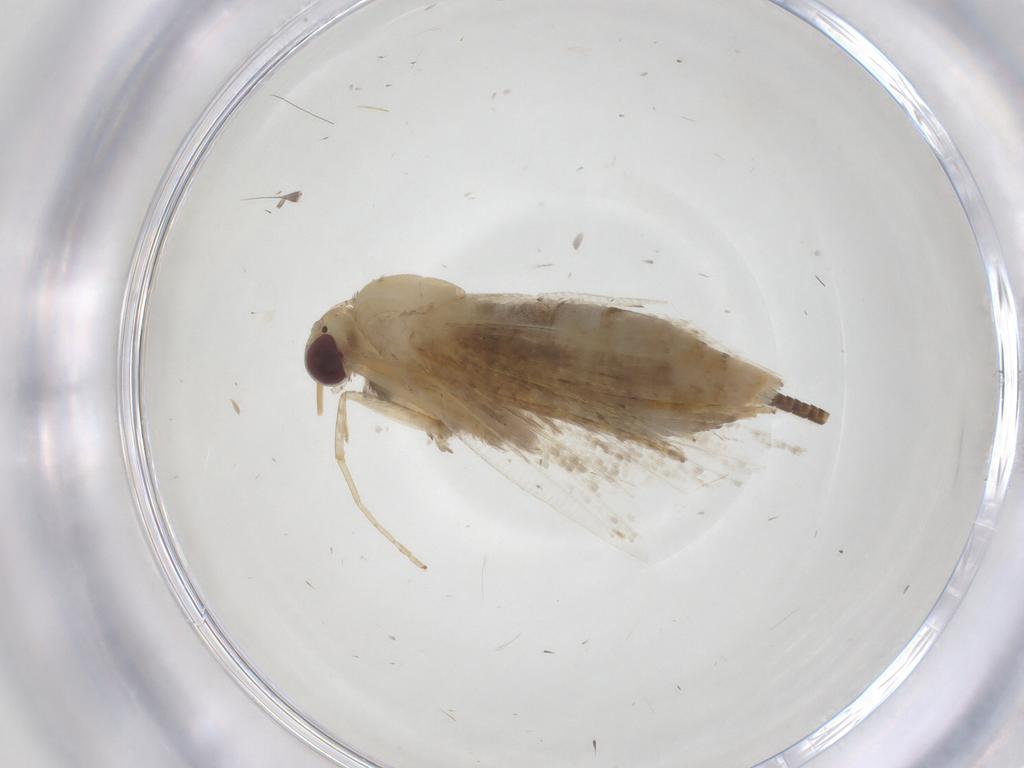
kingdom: Animalia
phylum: Arthropoda
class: Insecta
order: Lepidoptera
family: Erebidae
